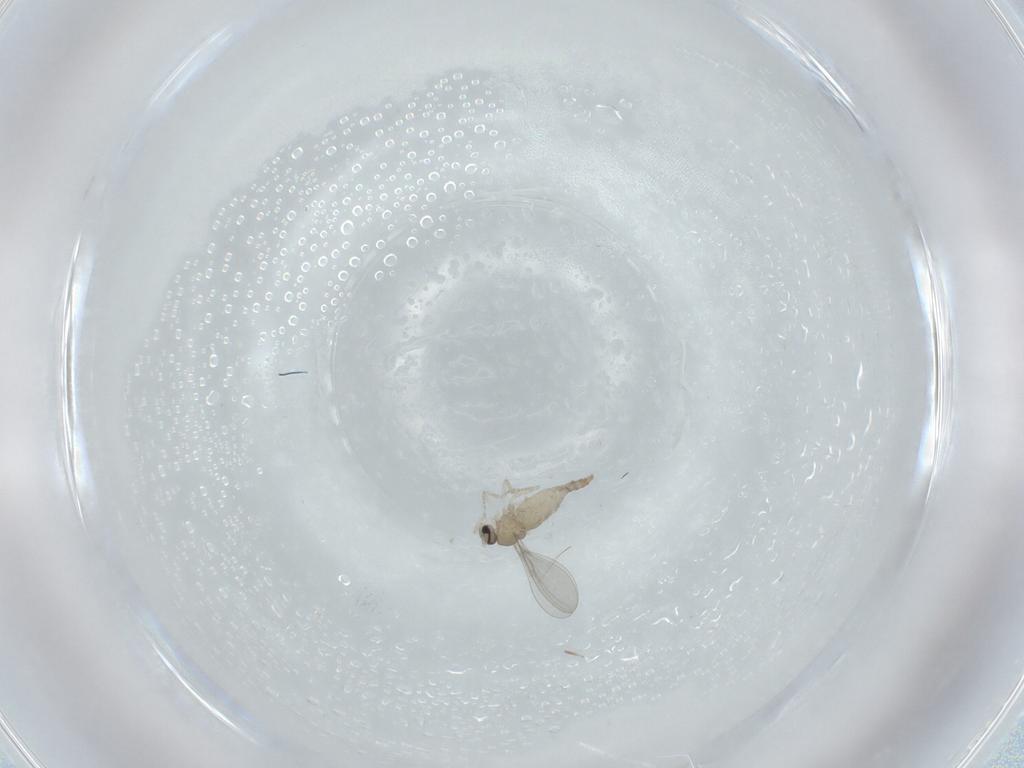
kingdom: Animalia
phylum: Arthropoda
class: Insecta
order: Diptera
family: Cecidomyiidae
